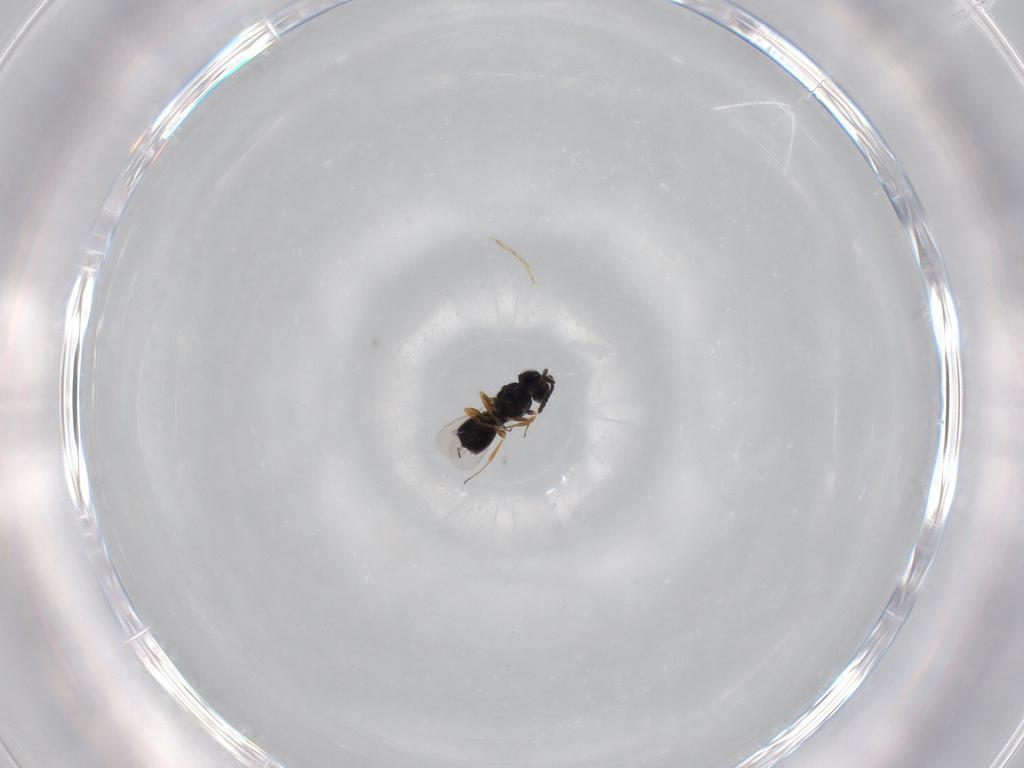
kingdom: Animalia
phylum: Arthropoda
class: Insecta
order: Hymenoptera
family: Scelionidae
